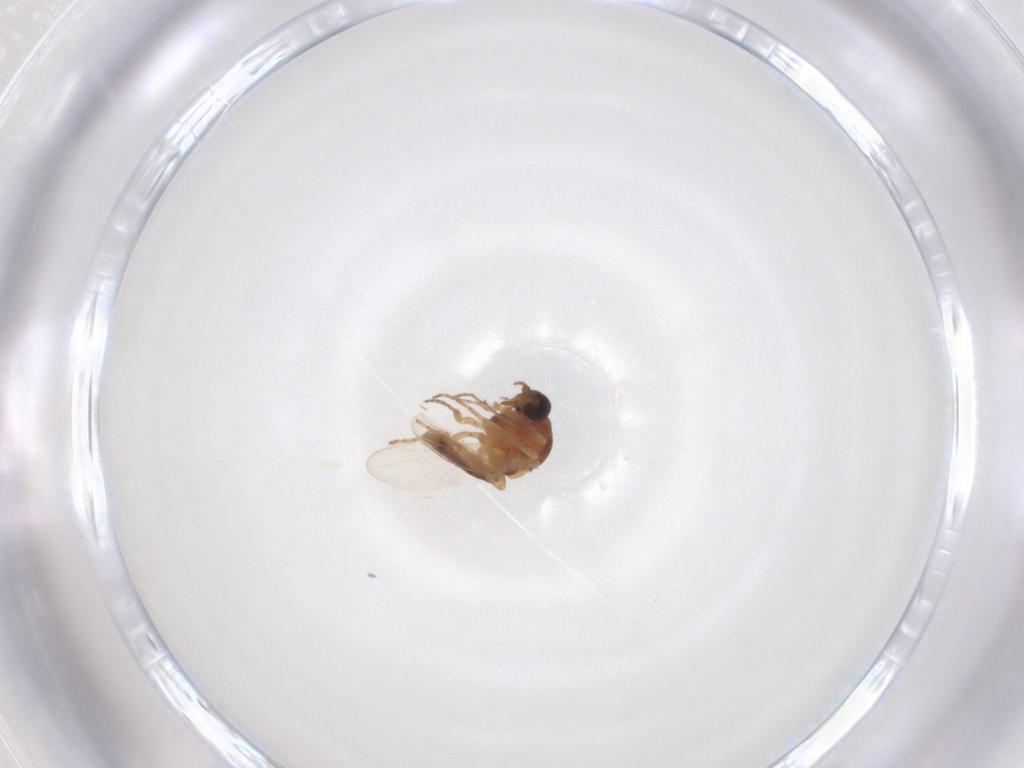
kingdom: Animalia
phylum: Arthropoda
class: Insecta
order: Diptera
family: Ceratopogonidae
